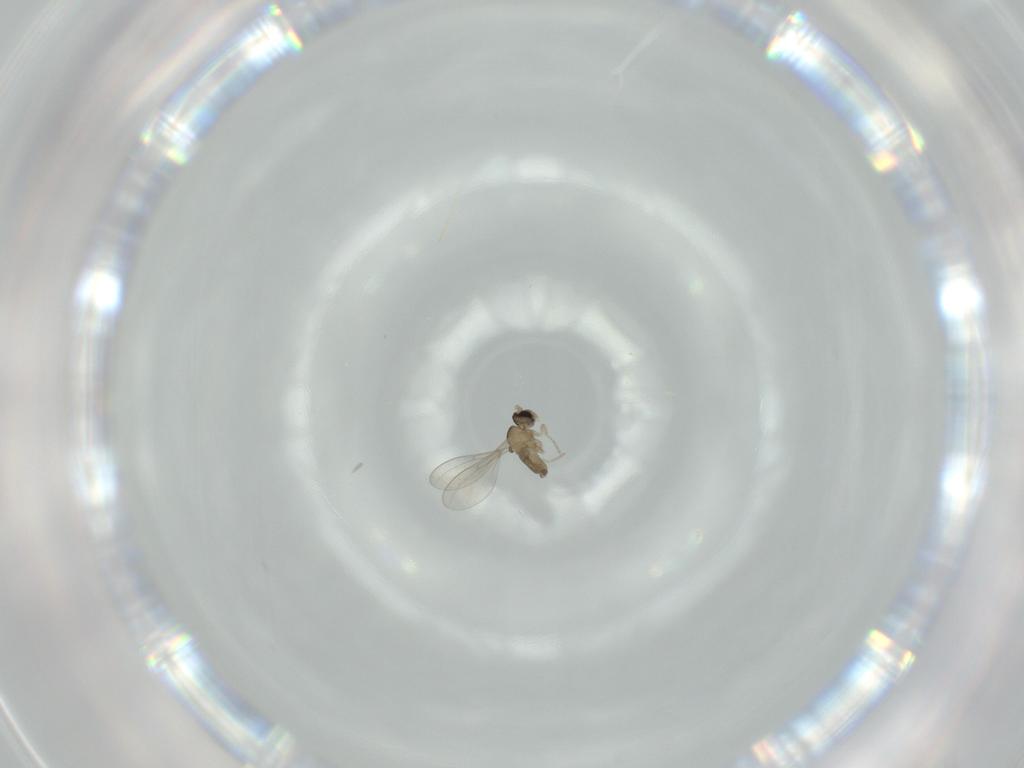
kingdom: Animalia
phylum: Arthropoda
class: Insecta
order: Diptera
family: Cecidomyiidae
